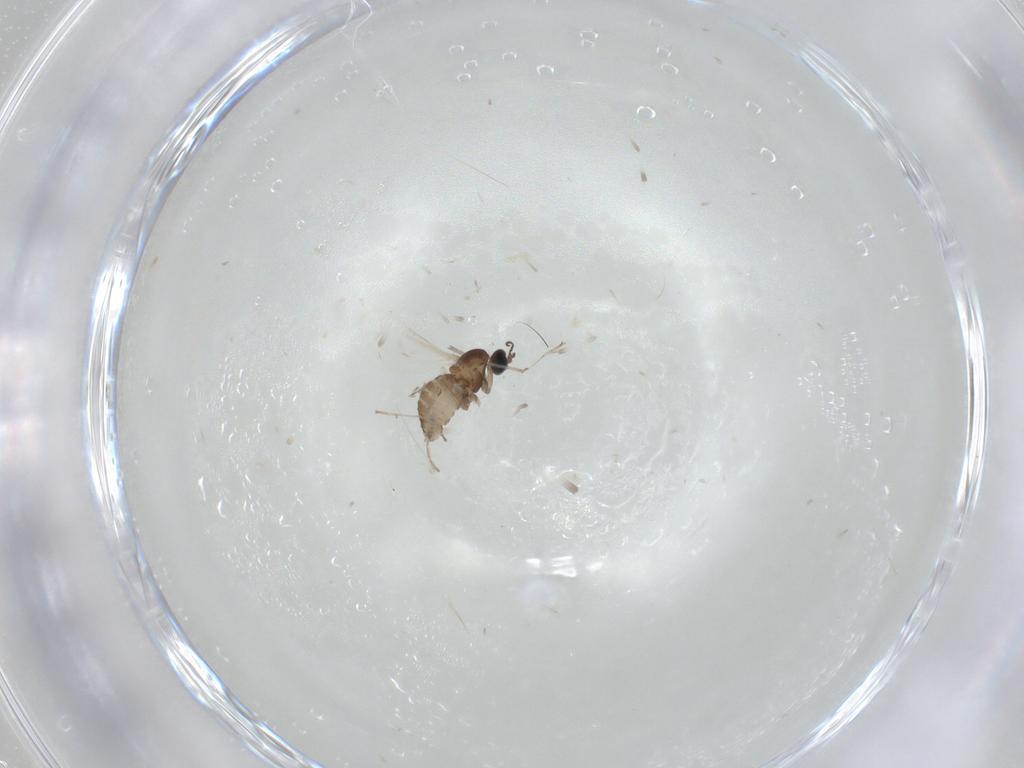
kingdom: Animalia
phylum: Arthropoda
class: Insecta
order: Diptera
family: Cecidomyiidae
